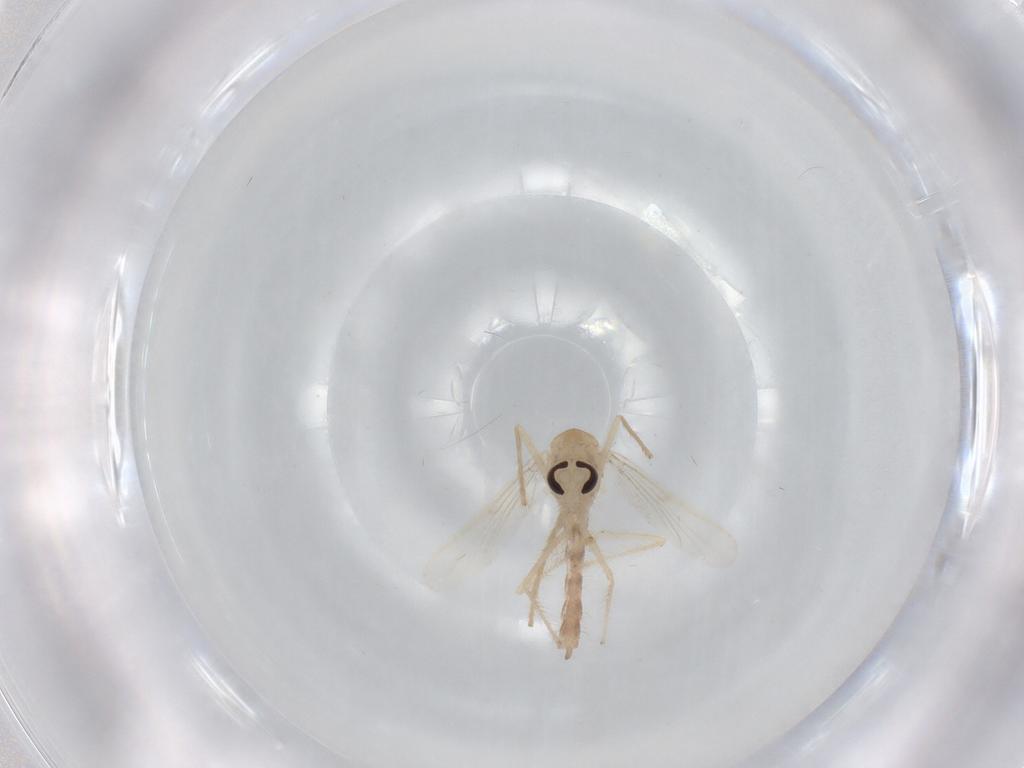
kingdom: Animalia
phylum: Arthropoda
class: Insecta
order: Diptera
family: Chironomidae
